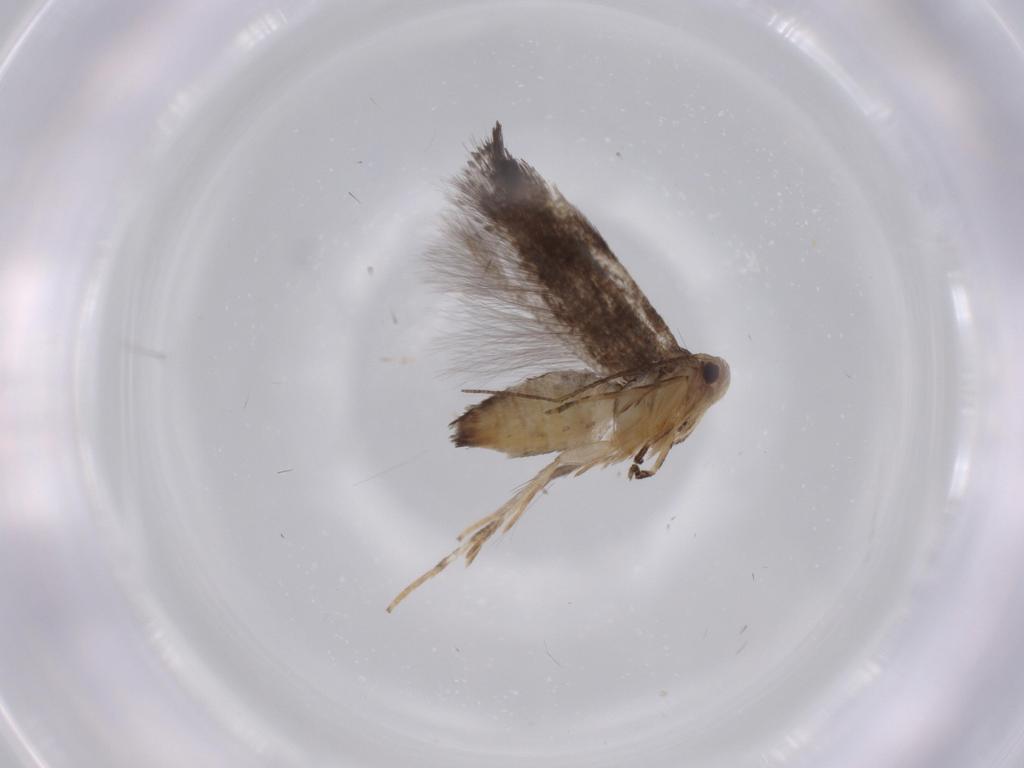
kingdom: Animalia
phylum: Arthropoda
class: Insecta
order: Lepidoptera
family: Gelechiidae
